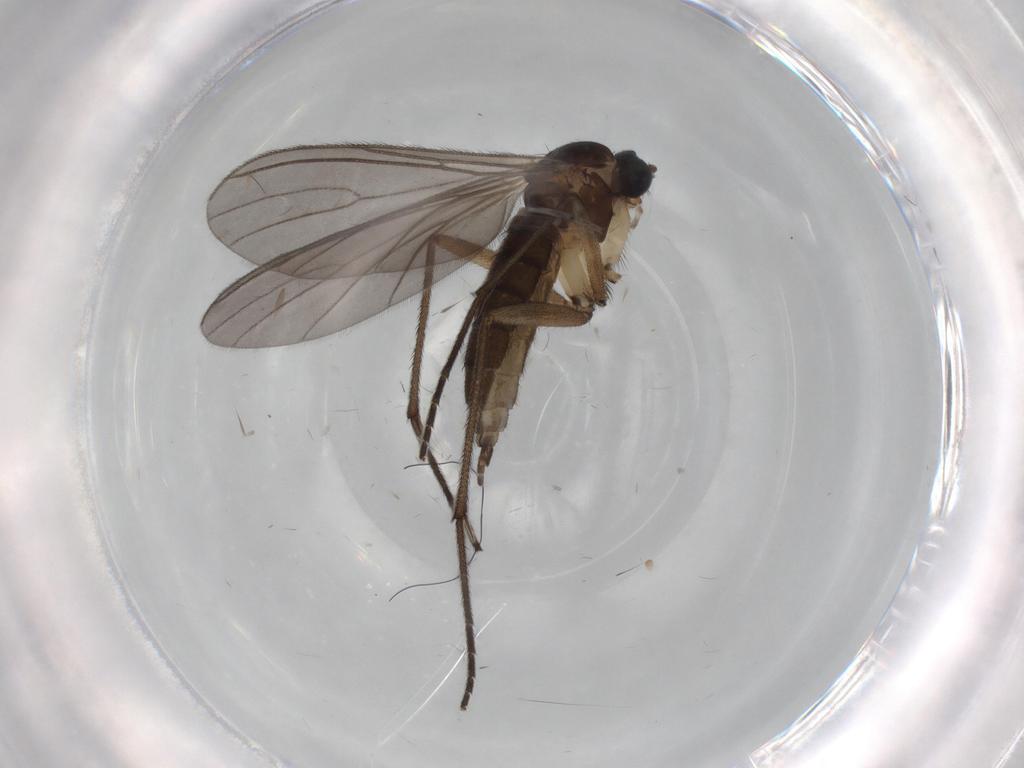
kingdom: Animalia
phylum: Arthropoda
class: Insecta
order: Diptera
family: Sciaridae
